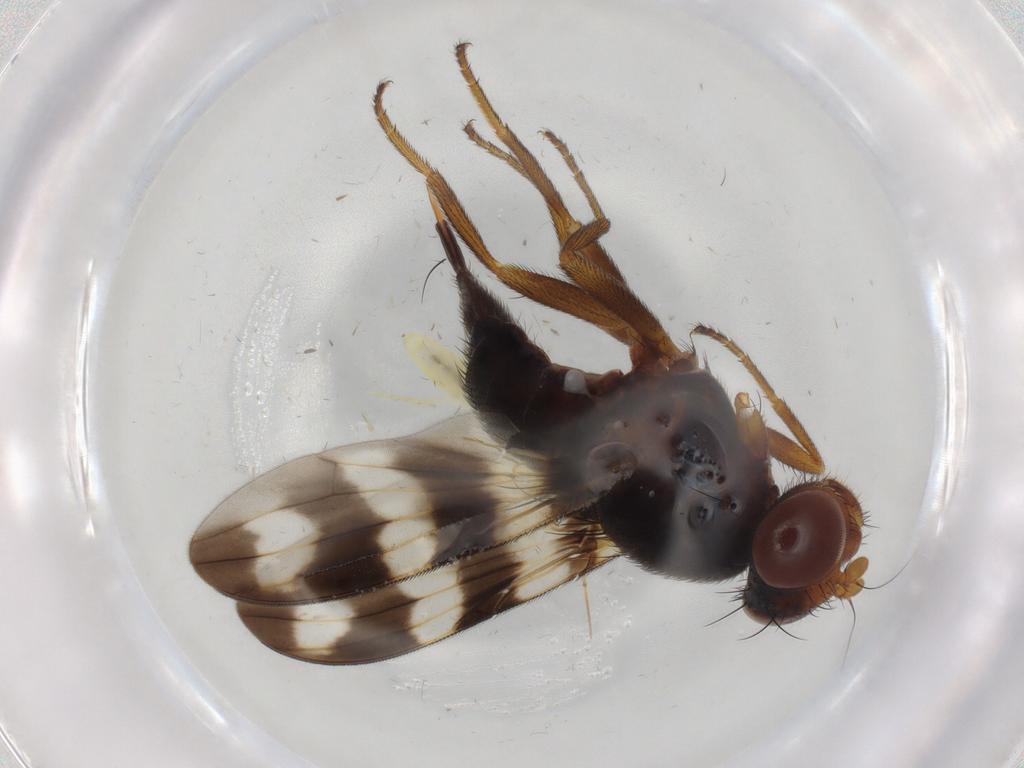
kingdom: Animalia
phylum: Arthropoda
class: Insecta
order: Diptera
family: Ulidiidae
